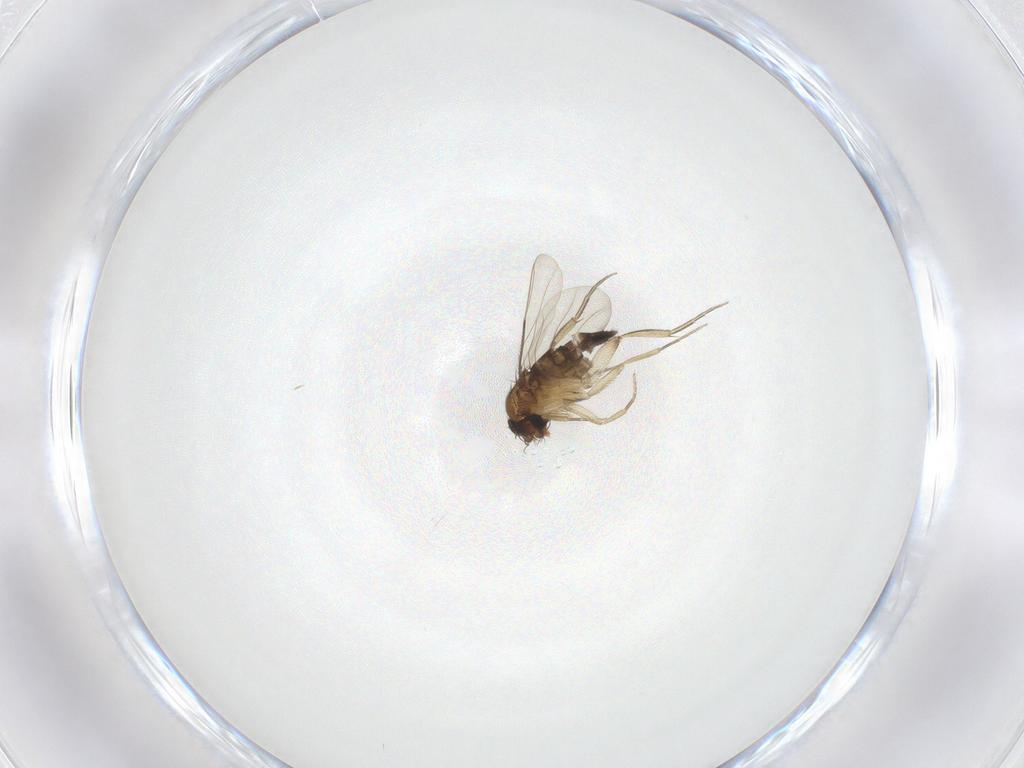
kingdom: Animalia
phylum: Arthropoda
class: Insecta
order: Diptera
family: Phoridae
